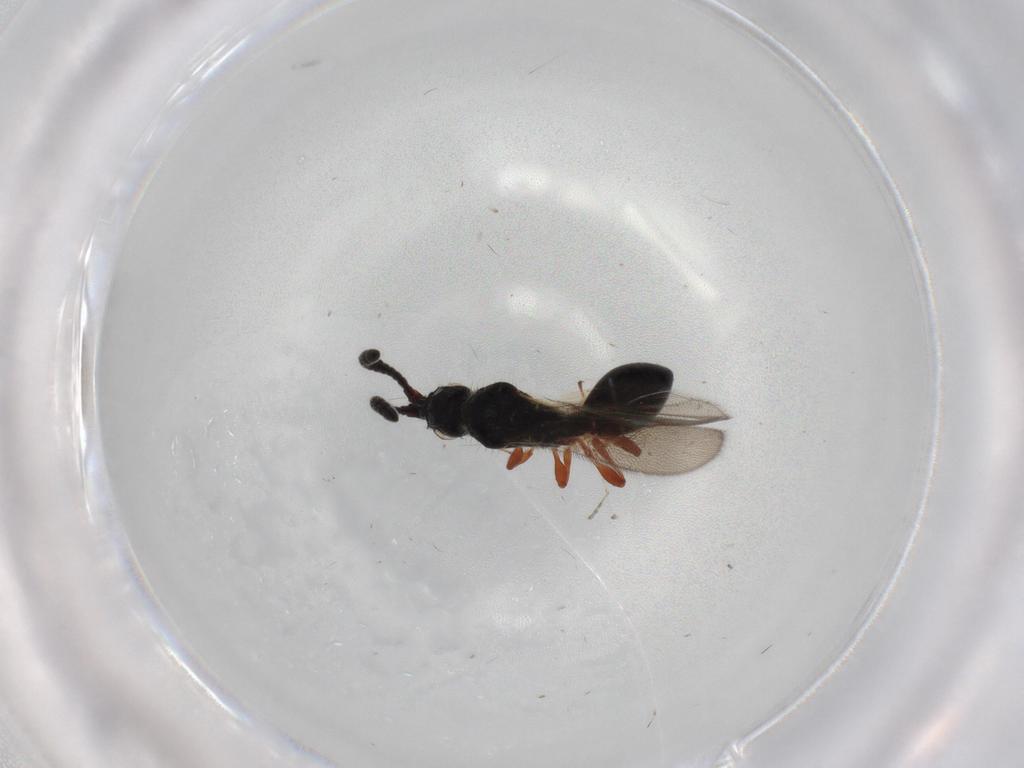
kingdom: Animalia
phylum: Arthropoda
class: Insecta
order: Hymenoptera
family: Diapriidae
